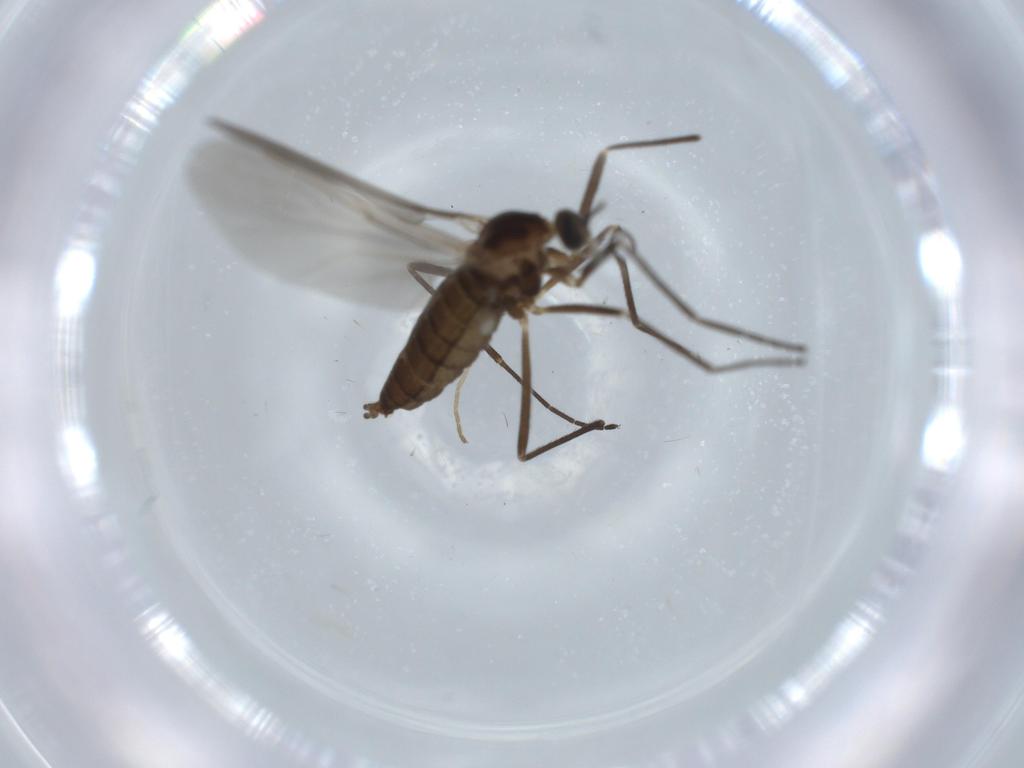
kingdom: Animalia
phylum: Arthropoda
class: Insecta
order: Diptera
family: Cecidomyiidae
